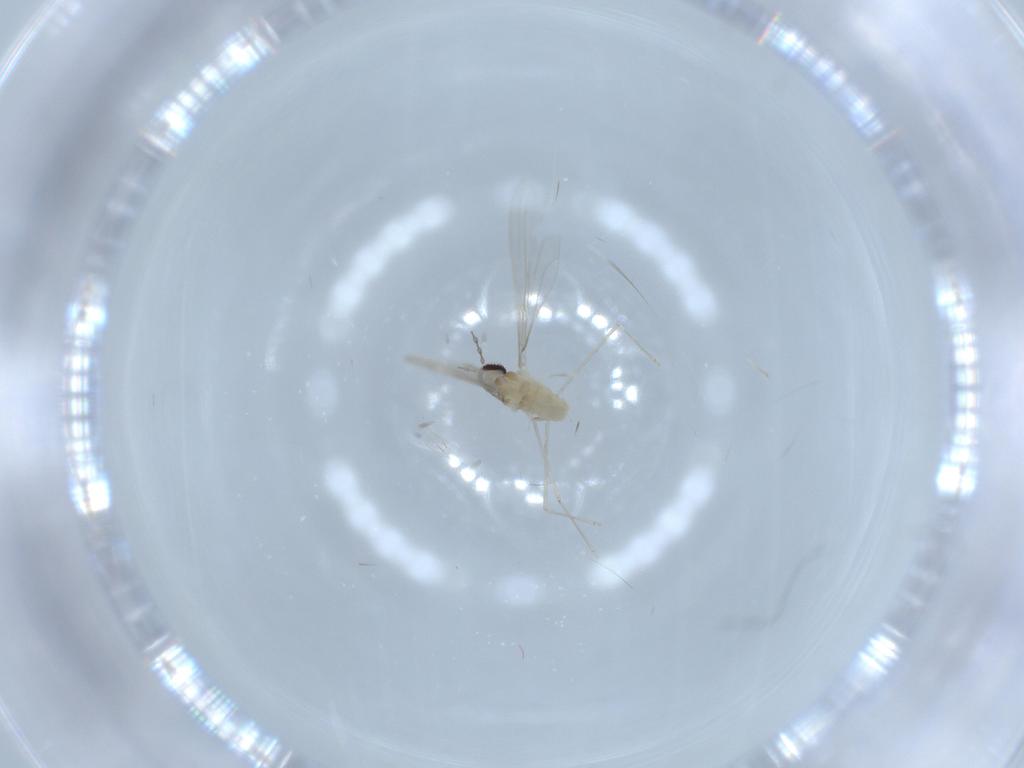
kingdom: Animalia
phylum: Arthropoda
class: Insecta
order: Diptera
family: Cecidomyiidae
